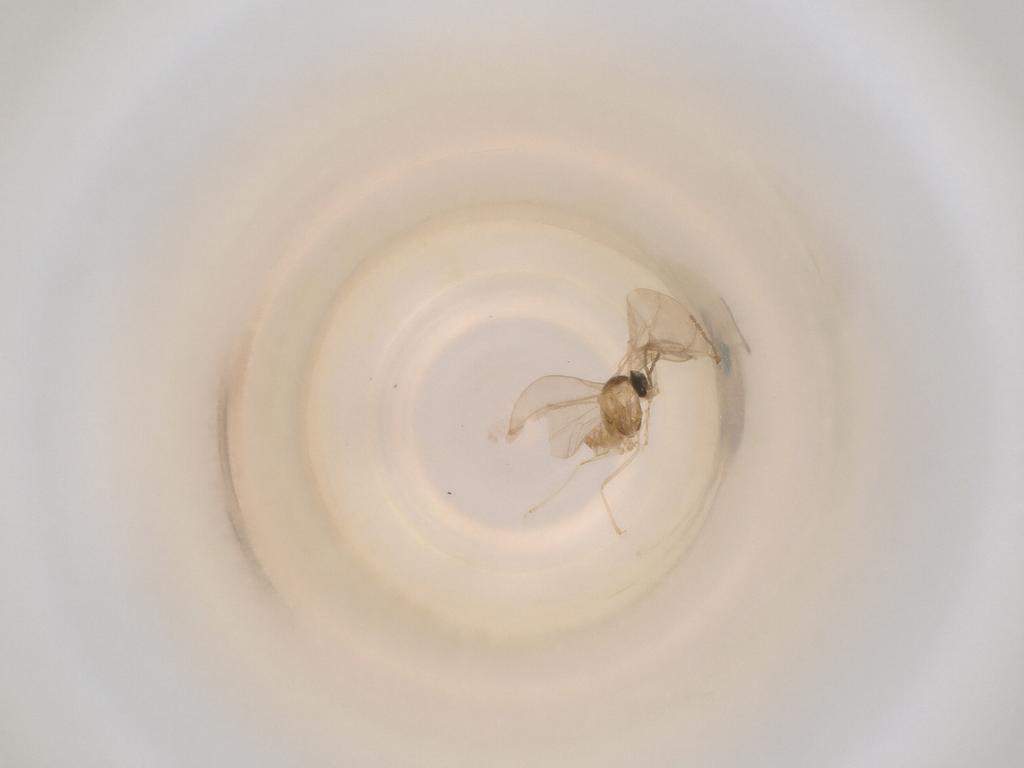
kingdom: Animalia
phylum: Arthropoda
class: Insecta
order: Diptera
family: Cecidomyiidae
